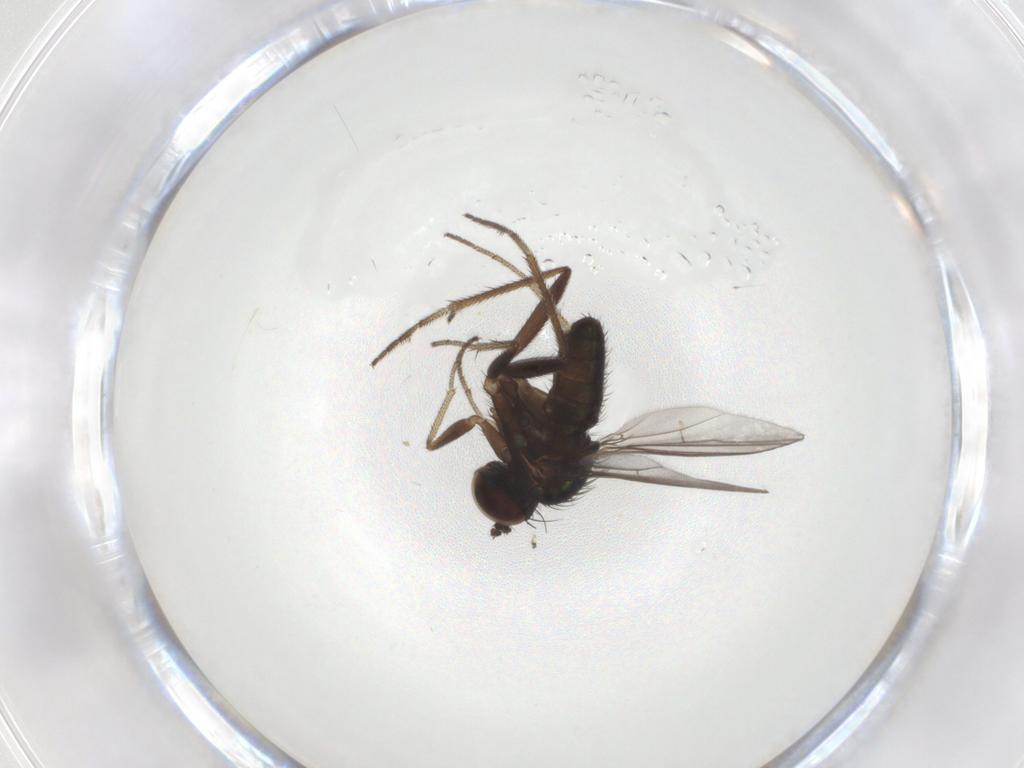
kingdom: Animalia
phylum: Arthropoda
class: Insecta
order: Diptera
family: Dolichopodidae
